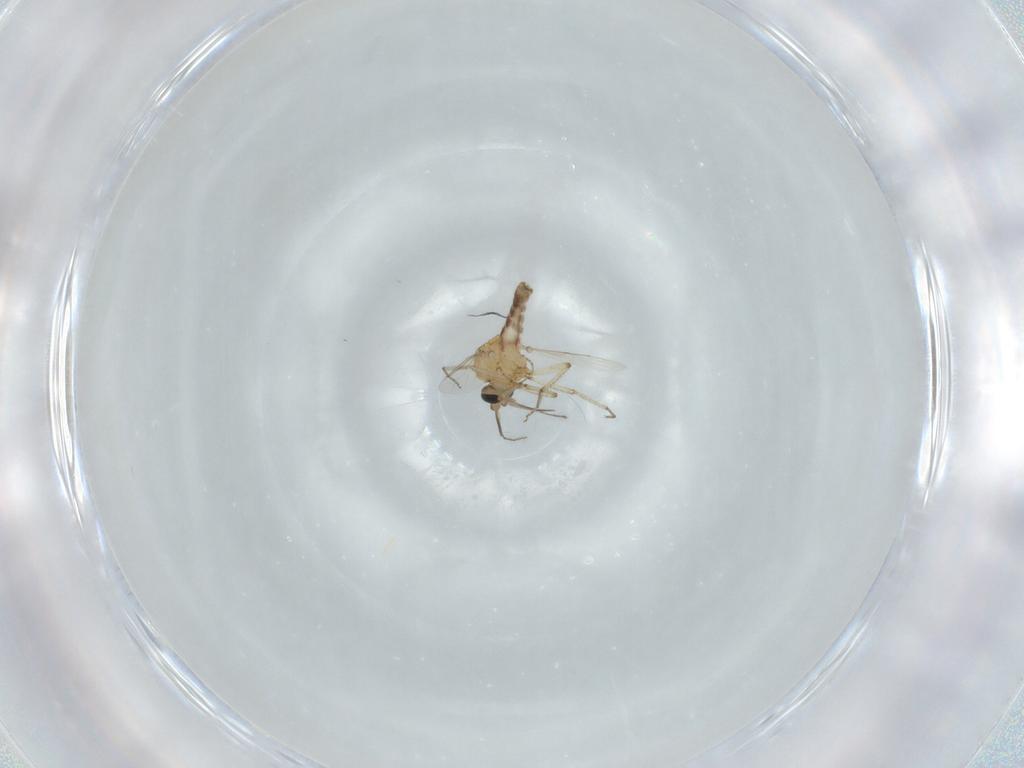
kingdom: Animalia
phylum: Arthropoda
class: Insecta
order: Diptera
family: Ceratopogonidae
